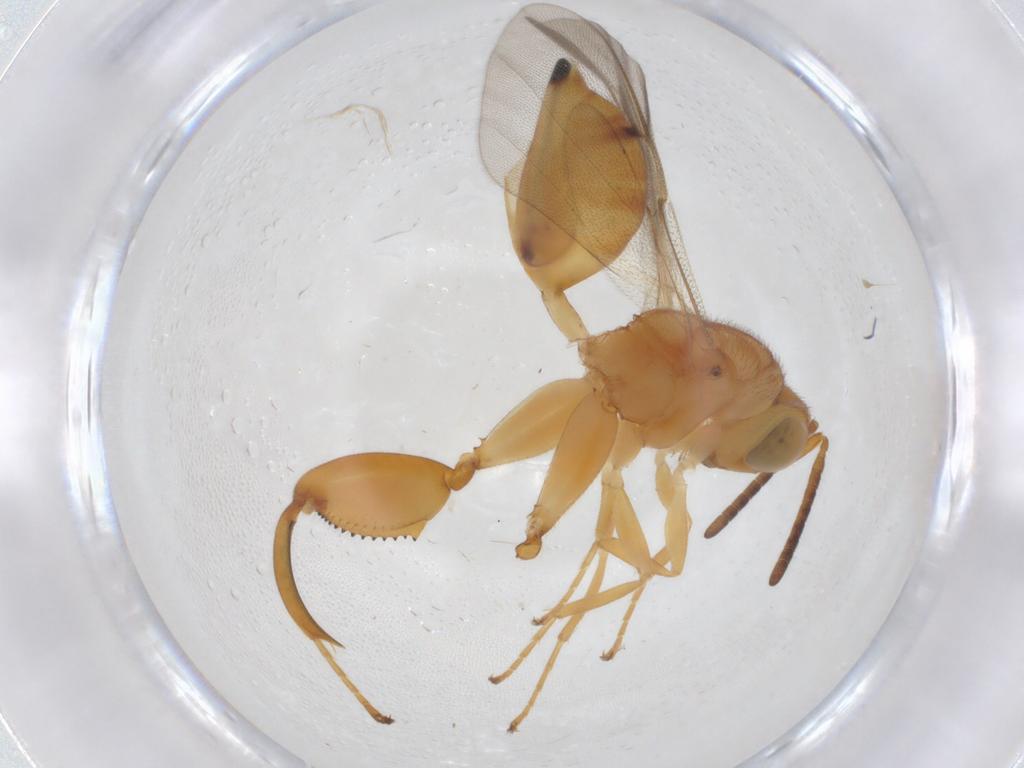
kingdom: Animalia
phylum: Arthropoda
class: Insecta
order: Hymenoptera
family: Chalcididae
